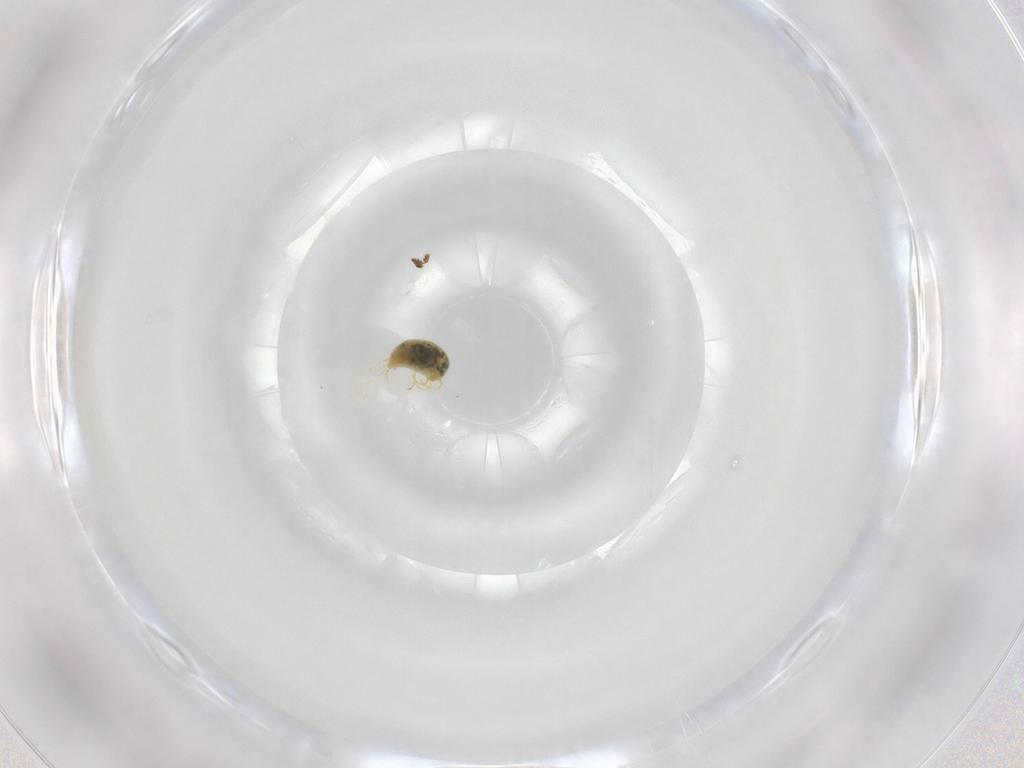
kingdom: Animalia
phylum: Arthropoda
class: Arachnida
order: Trombidiformes
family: Tetranychidae
